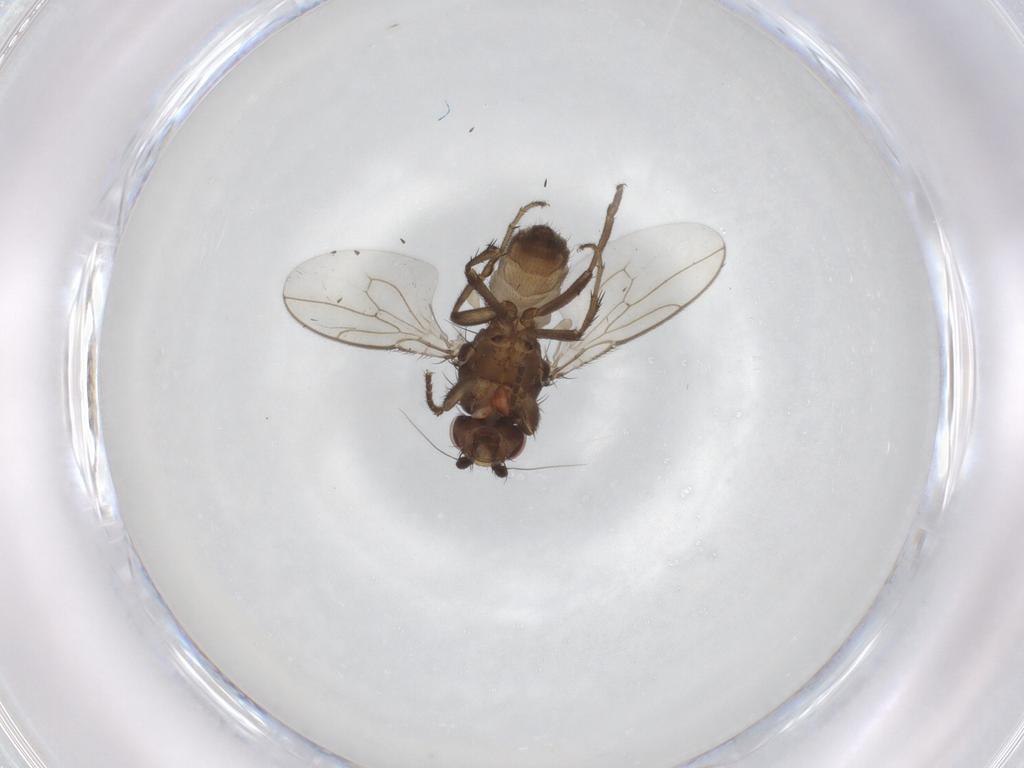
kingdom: Animalia
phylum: Arthropoda
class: Insecta
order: Diptera
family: Sphaeroceridae
